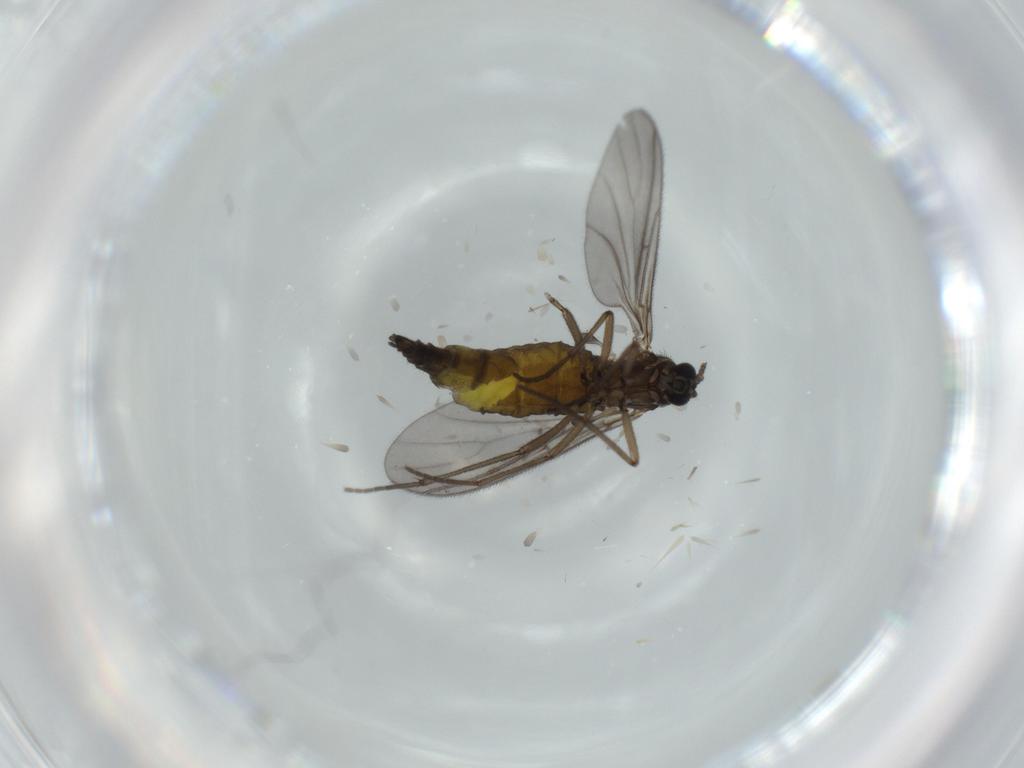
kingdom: Animalia
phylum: Arthropoda
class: Insecta
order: Diptera
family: Sciaridae
